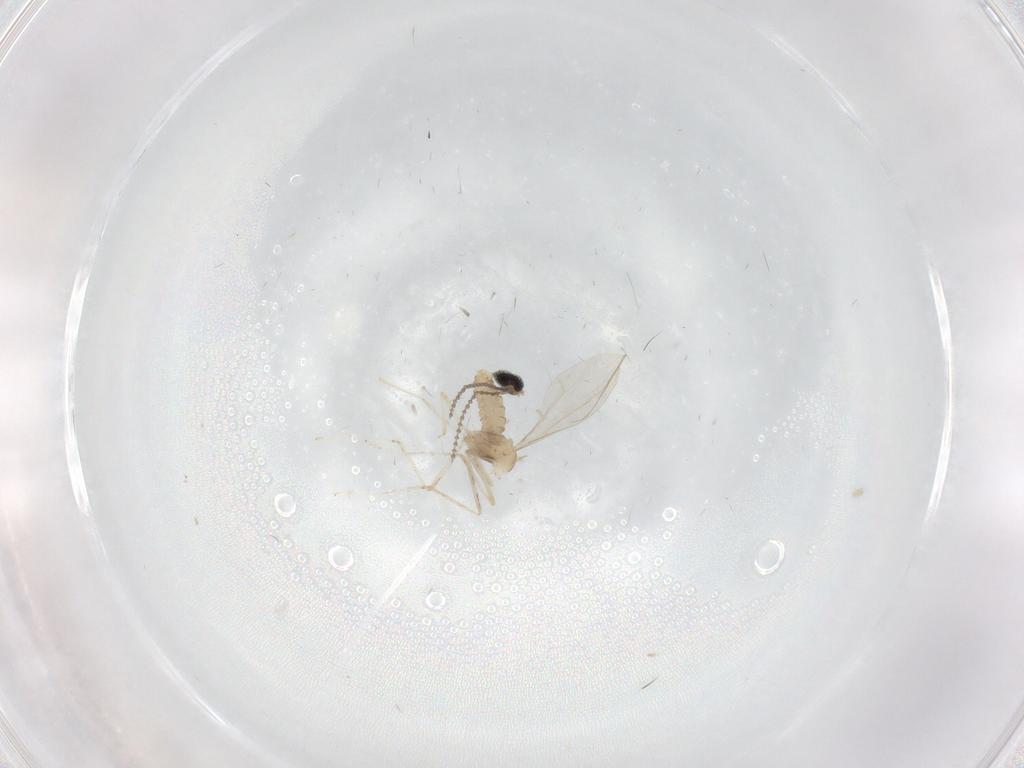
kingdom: Animalia
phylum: Arthropoda
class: Insecta
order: Diptera
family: Cecidomyiidae
